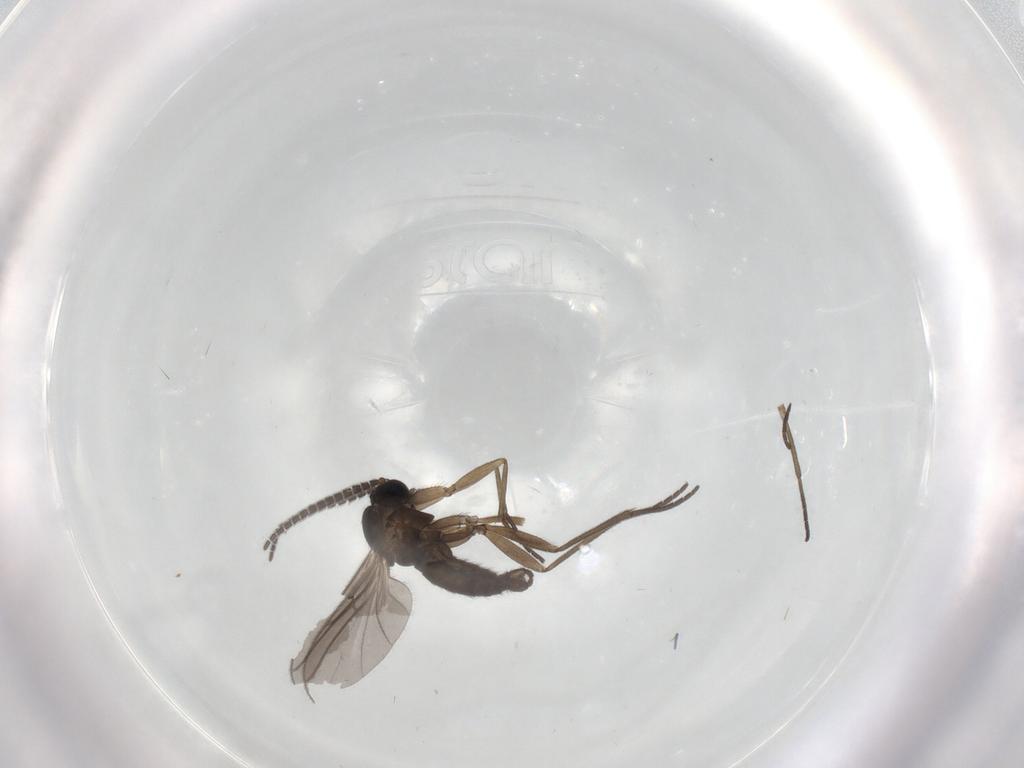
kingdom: Animalia
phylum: Arthropoda
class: Insecta
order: Diptera
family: Sciaridae
